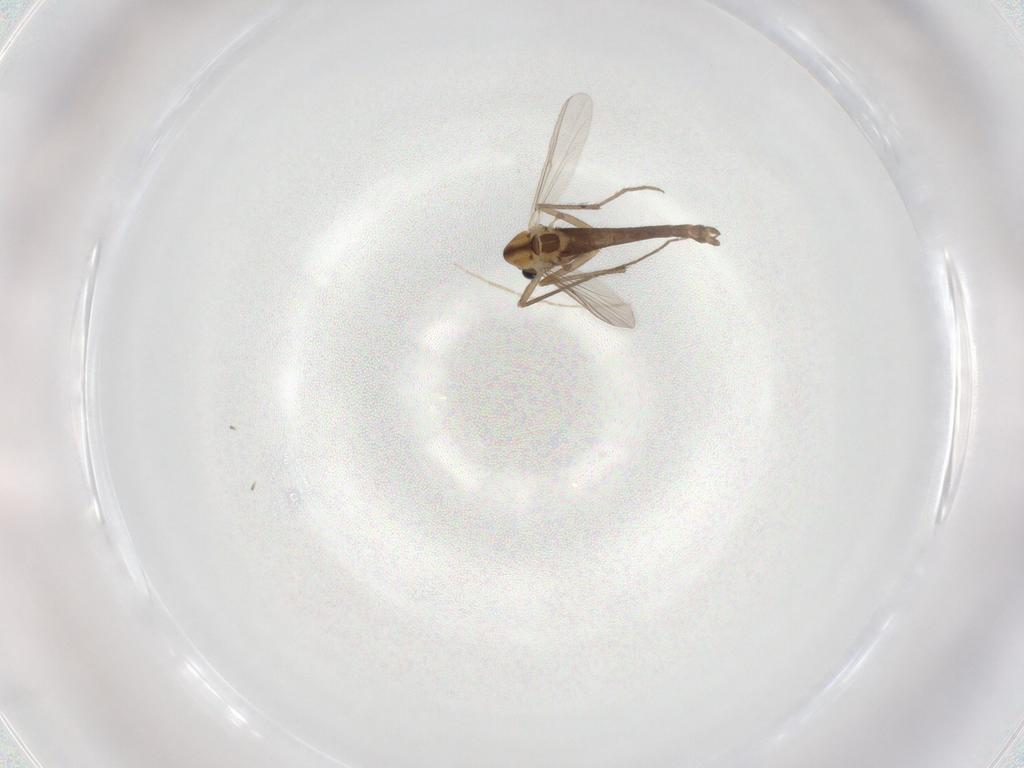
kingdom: Animalia
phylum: Arthropoda
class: Insecta
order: Diptera
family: Chironomidae
